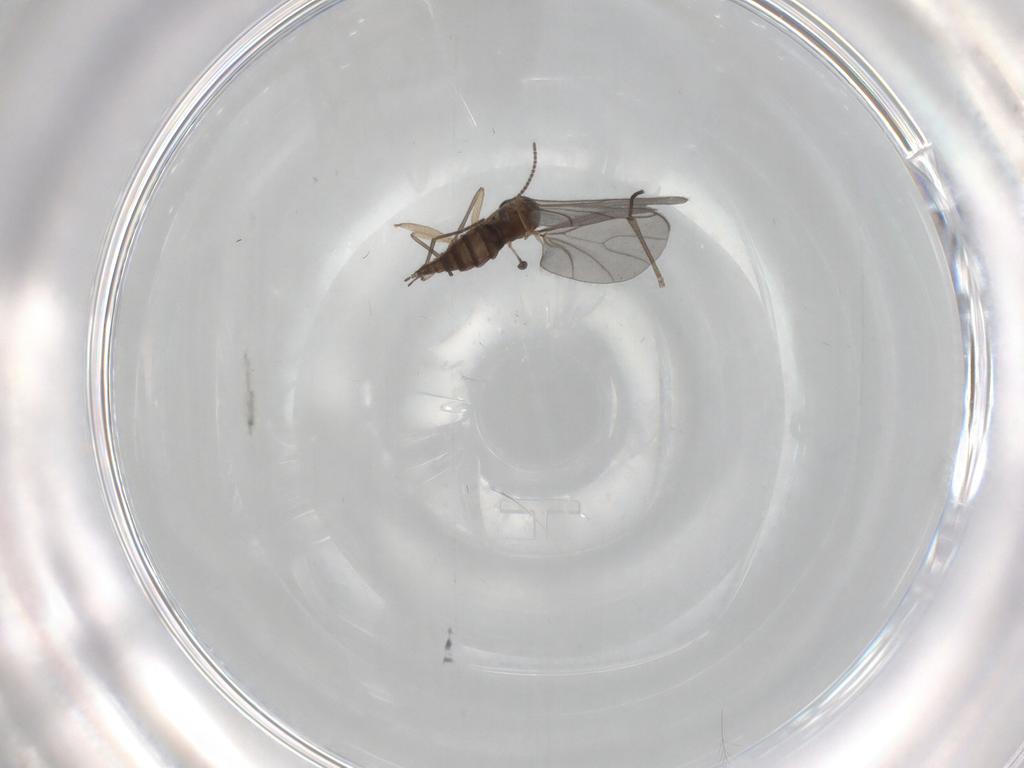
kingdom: Animalia
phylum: Arthropoda
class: Insecta
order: Diptera
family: Sciaridae
